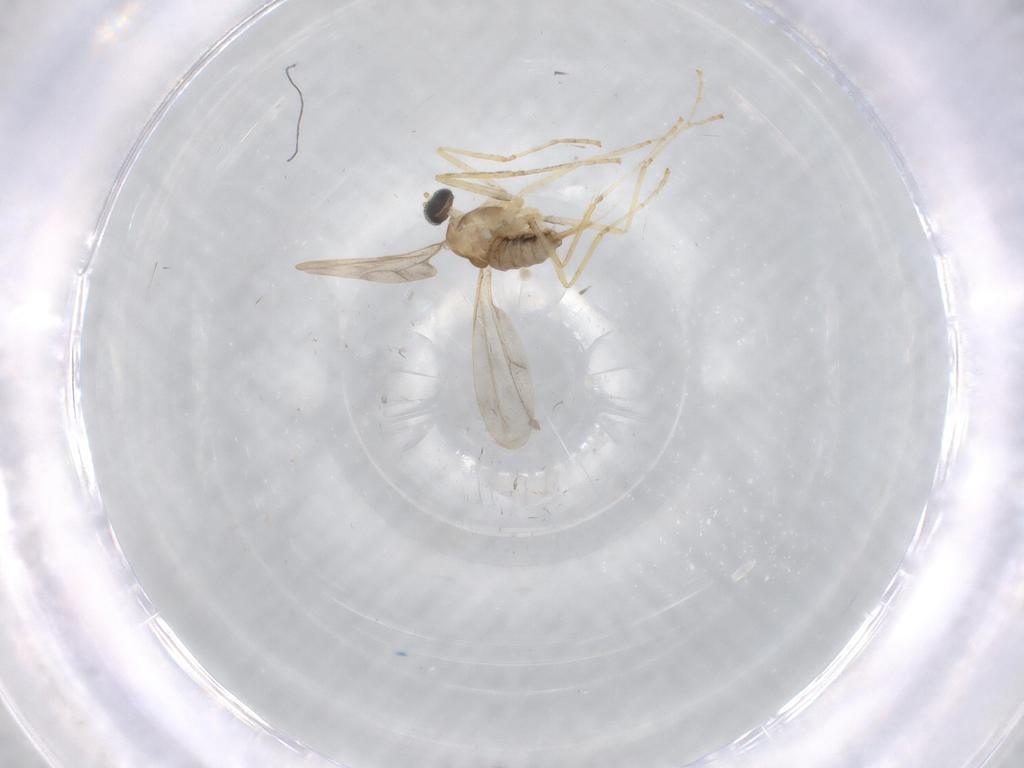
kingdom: Animalia
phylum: Arthropoda
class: Insecta
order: Diptera
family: Cecidomyiidae
